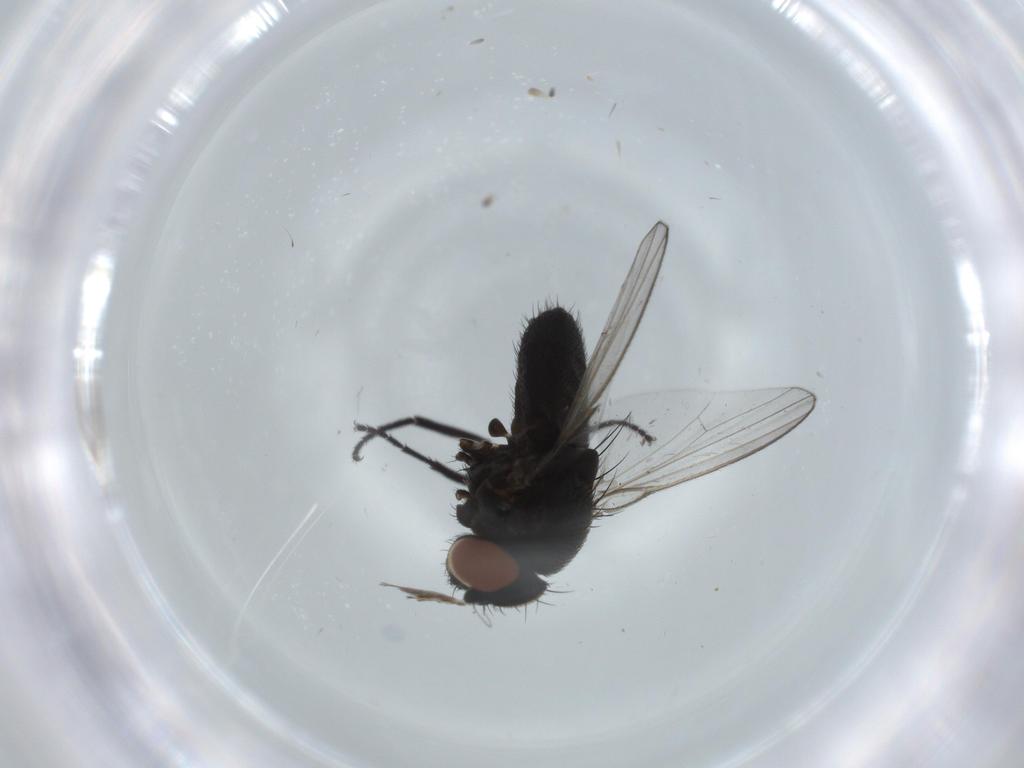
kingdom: Animalia
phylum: Arthropoda
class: Insecta
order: Diptera
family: Milichiidae
